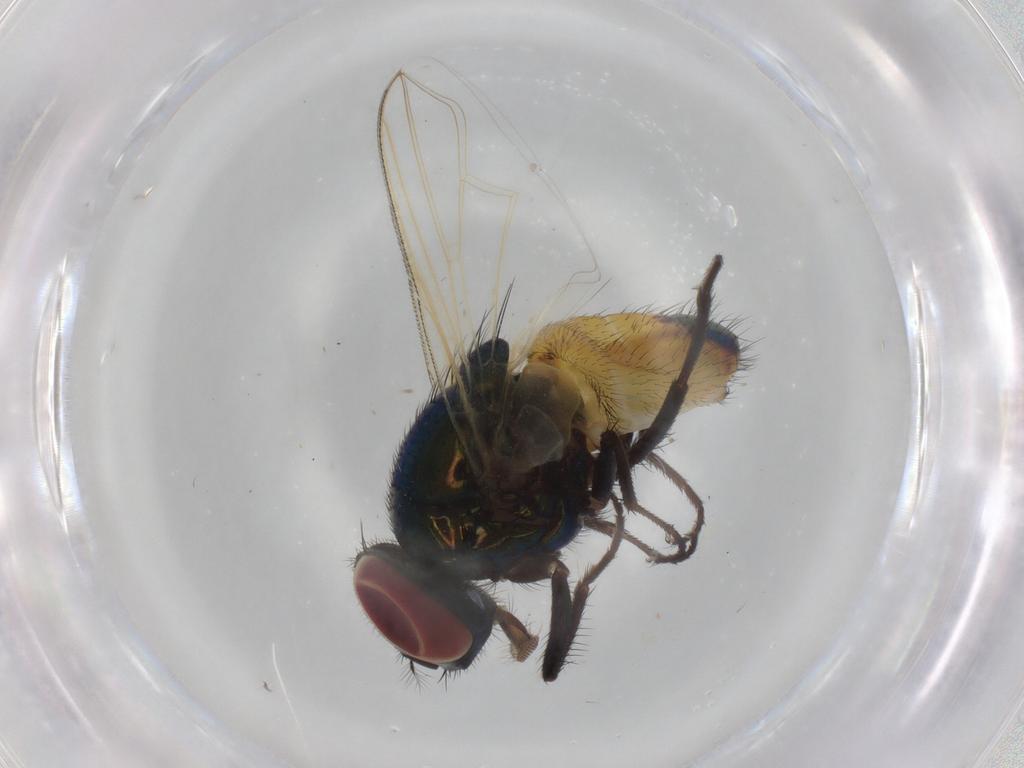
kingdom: Animalia
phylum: Arthropoda
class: Insecta
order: Diptera
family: Muscidae
